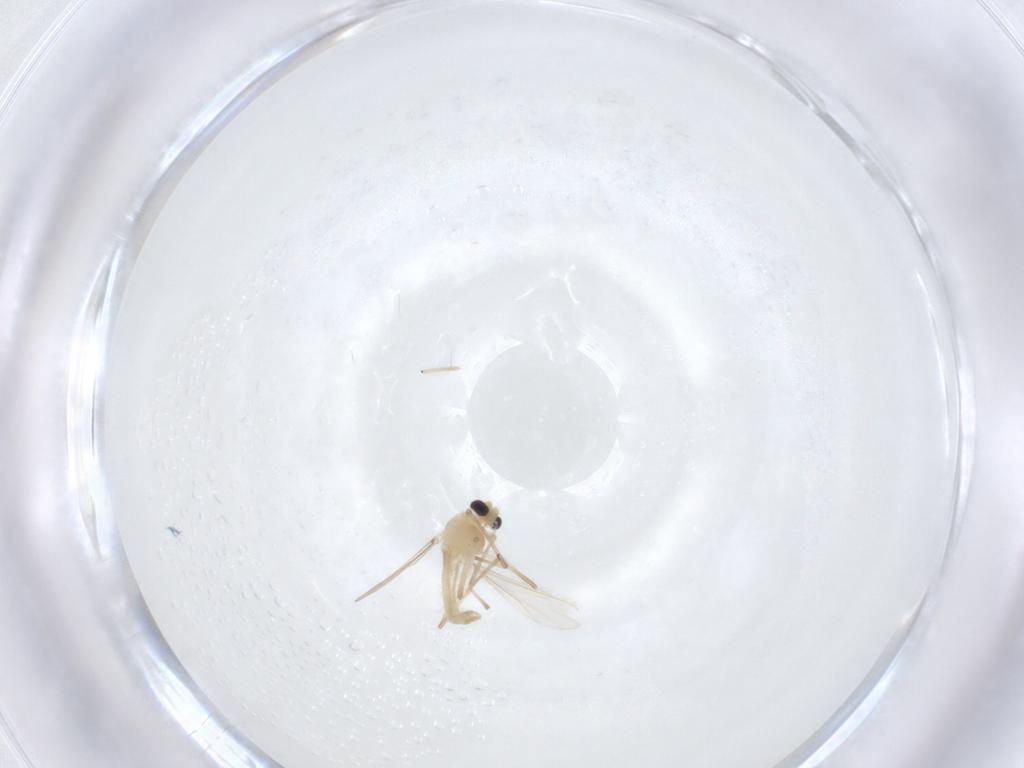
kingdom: Animalia
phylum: Arthropoda
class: Insecta
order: Diptera
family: Chironomidae
